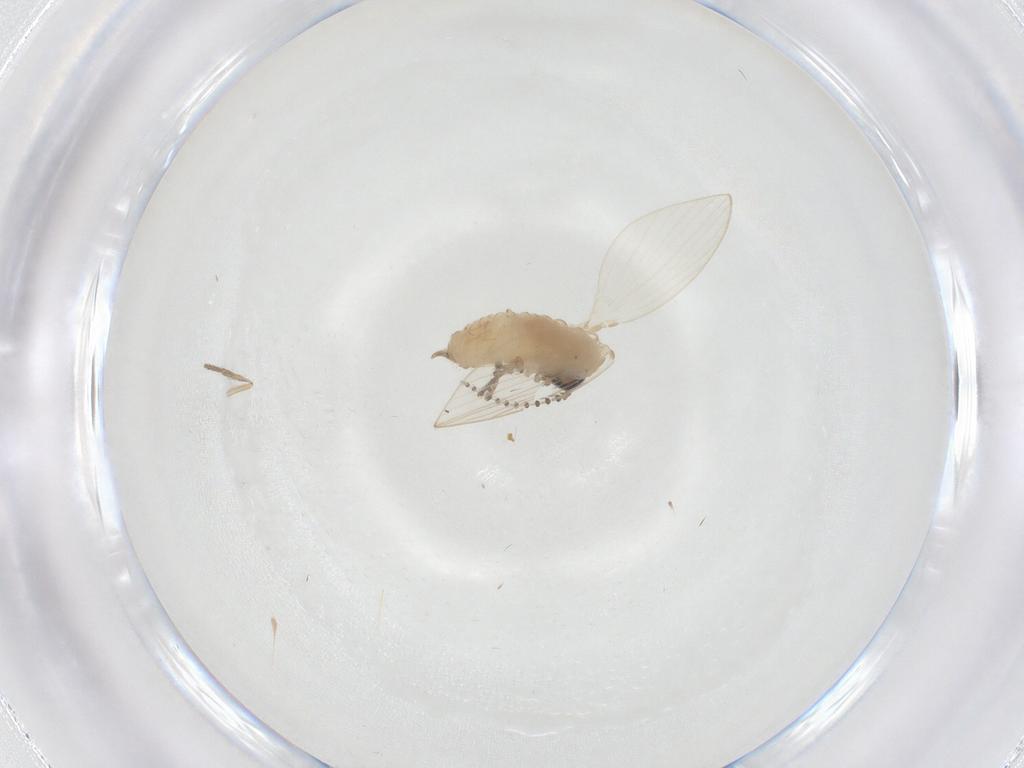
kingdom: Animalia
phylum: Arthropoda
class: Insecta
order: Diptera
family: Psychodidae
